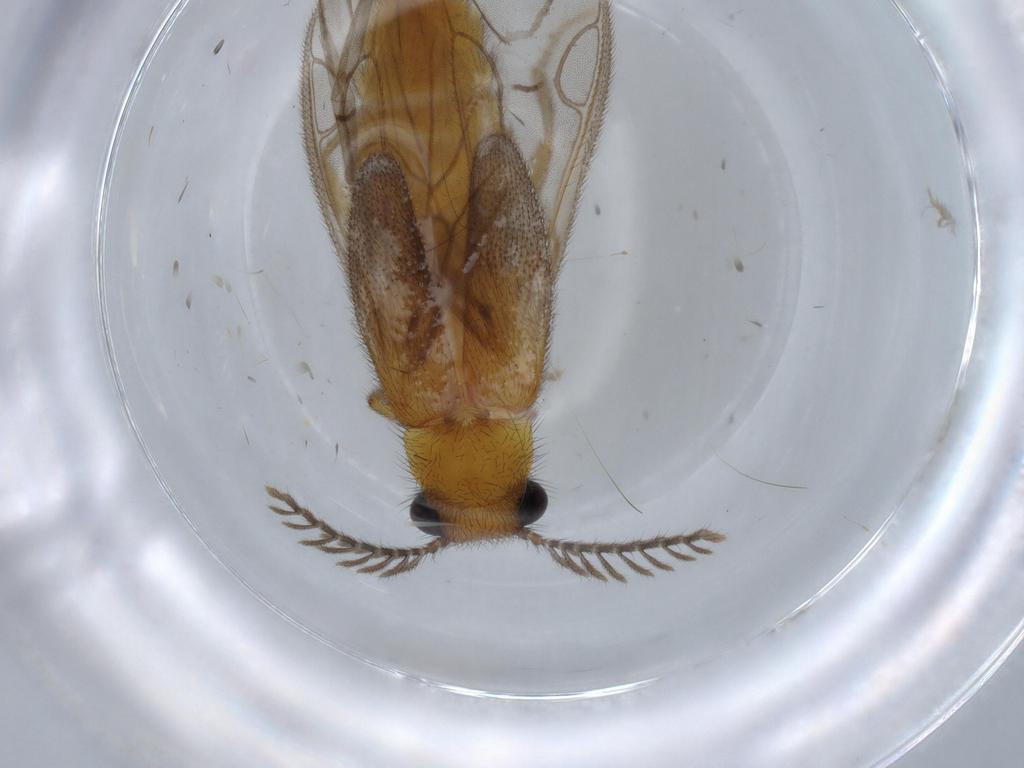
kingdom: Animalia
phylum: Arthropoda
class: Insecta
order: Coleoptera
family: Phengodidae
